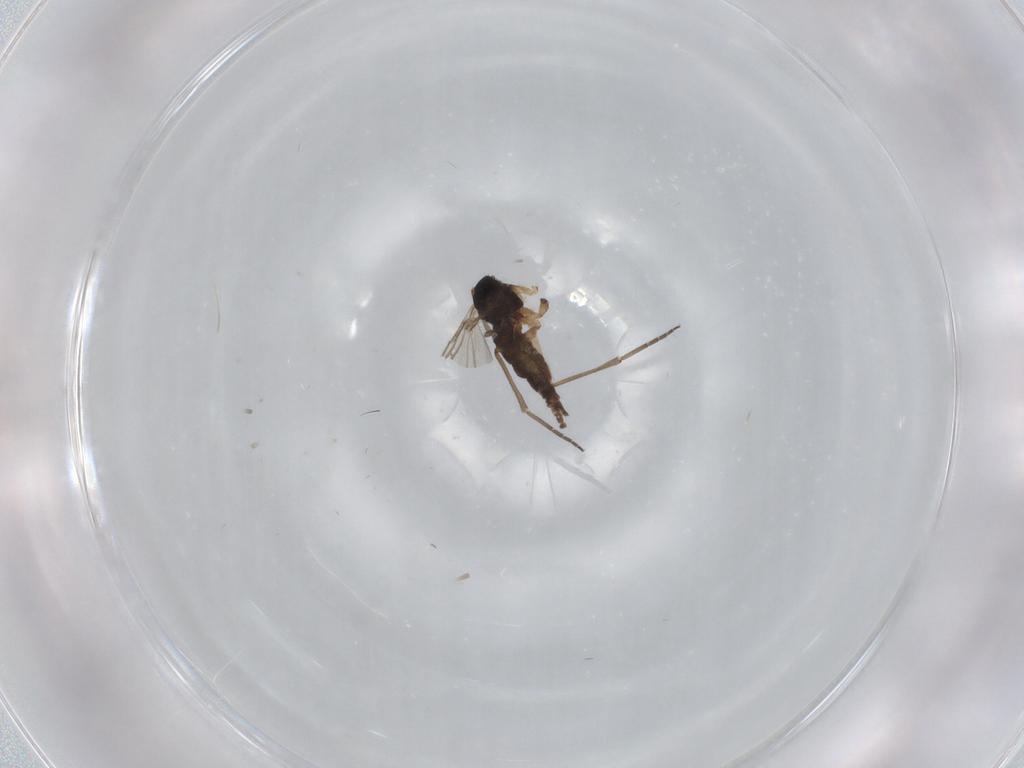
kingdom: Animalia
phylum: Arthropoda
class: Insecta
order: Diptera
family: Sciaridae
